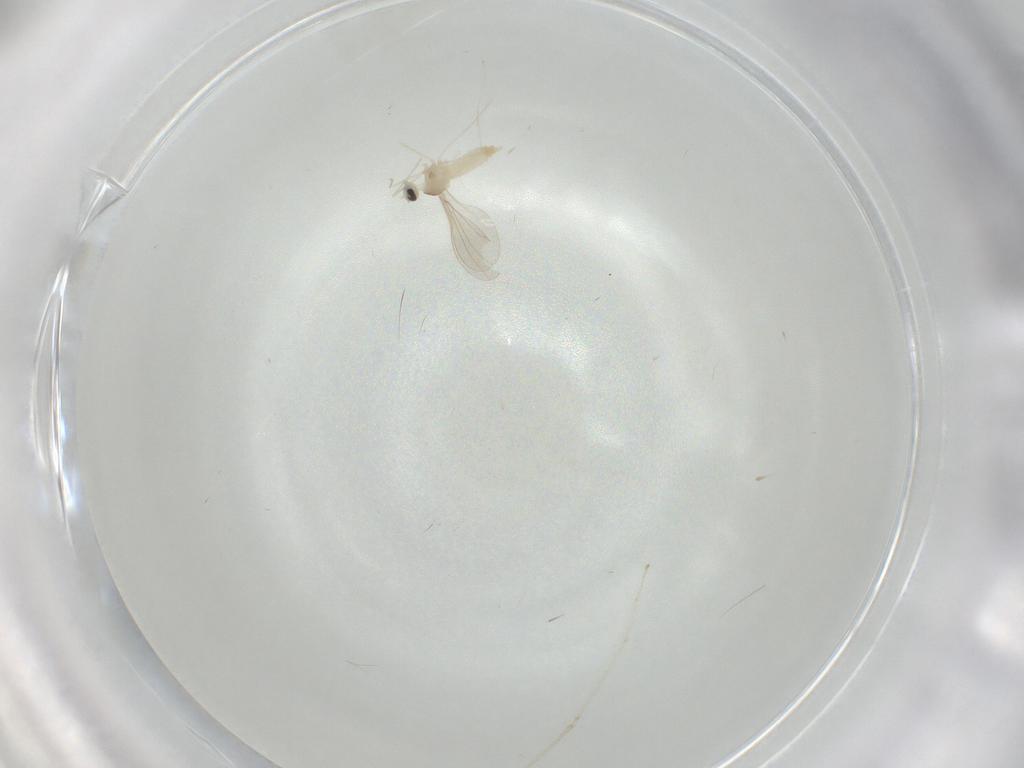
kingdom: Animalia
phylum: Arthropoda
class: Insecta
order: Diptera
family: Cecidomyiidae
